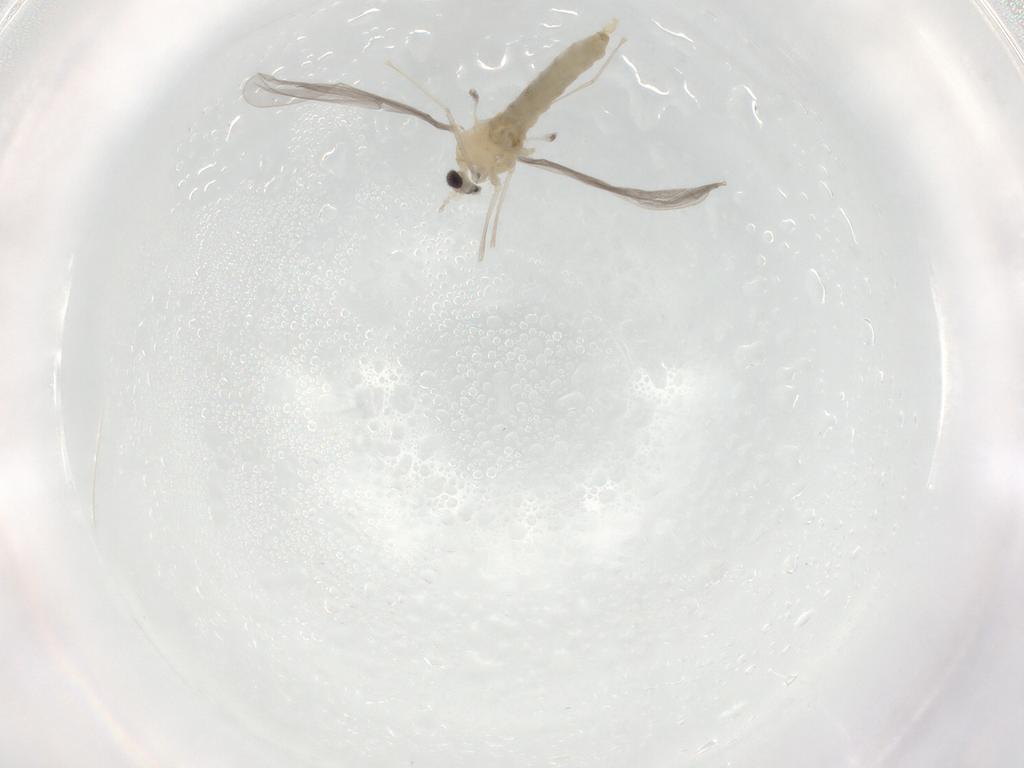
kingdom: Animalia
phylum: Arthropoda
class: Insecta
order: Diptera
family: Cecidomyiidae
